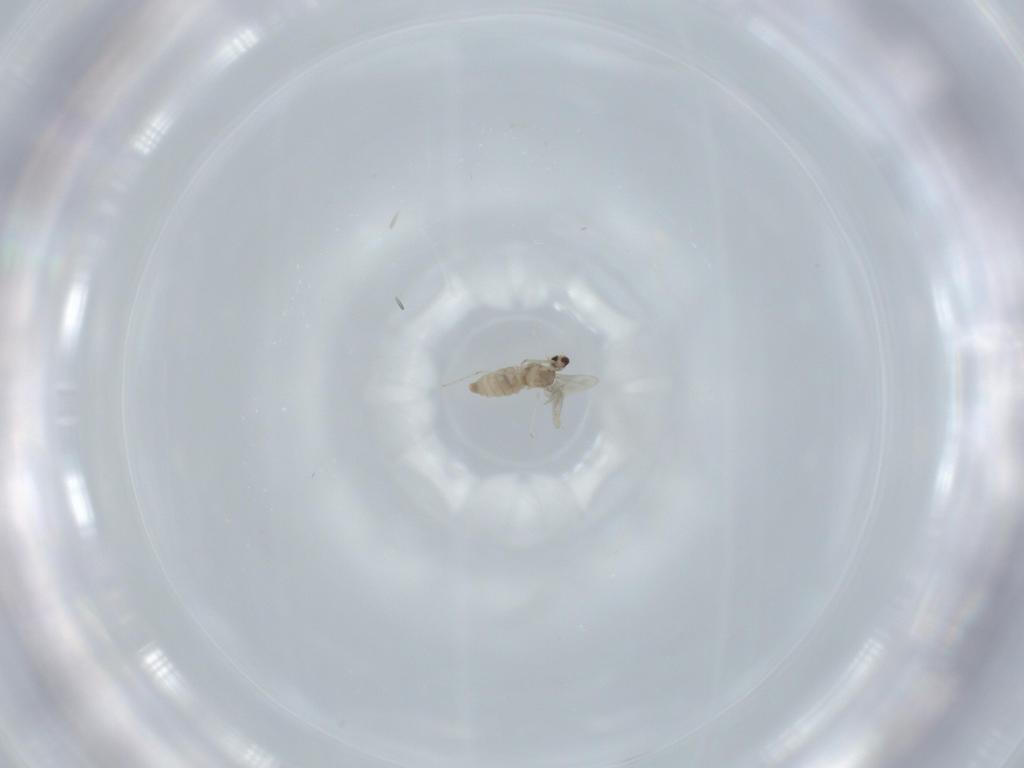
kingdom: Animalia
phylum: Arthropoda
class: Insecta
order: Diptera
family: Cecidomyiidae
